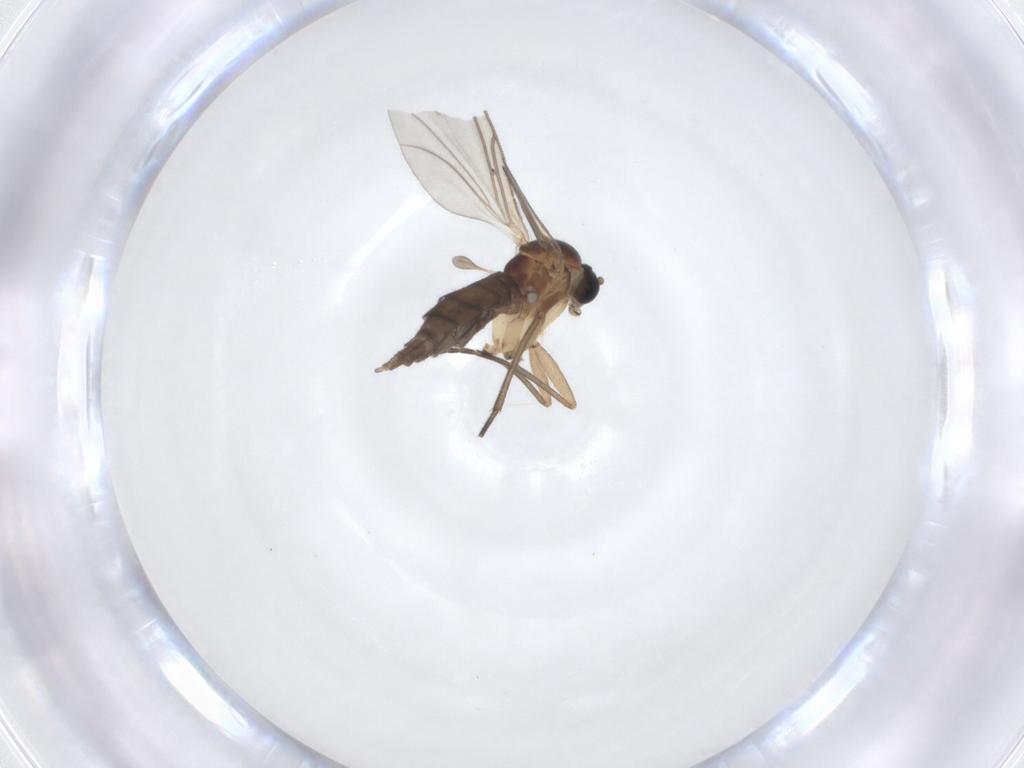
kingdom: Animalia
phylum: Arthropoda
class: Insecta
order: Diptera
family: Sciaridae
